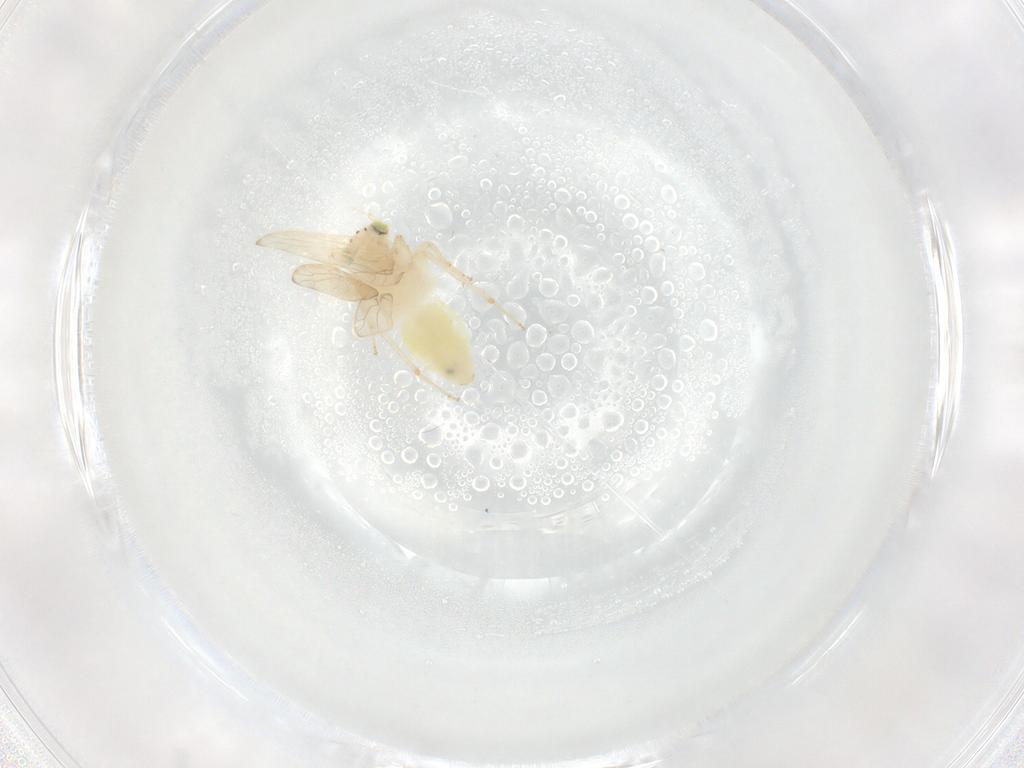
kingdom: Animalia
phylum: Arthropoda
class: Insecta
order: Psocodea
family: Lepidopsocidae
